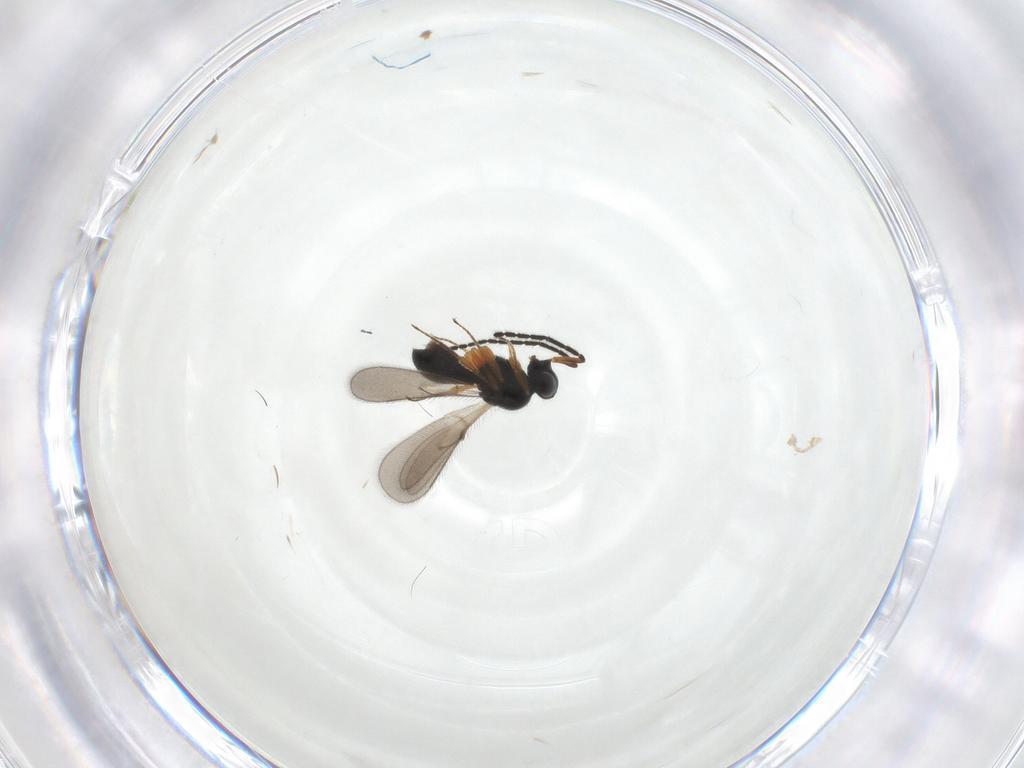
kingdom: Animalia
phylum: Arthropoda
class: Insecta
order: Hymenoptera
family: Scelionidae
